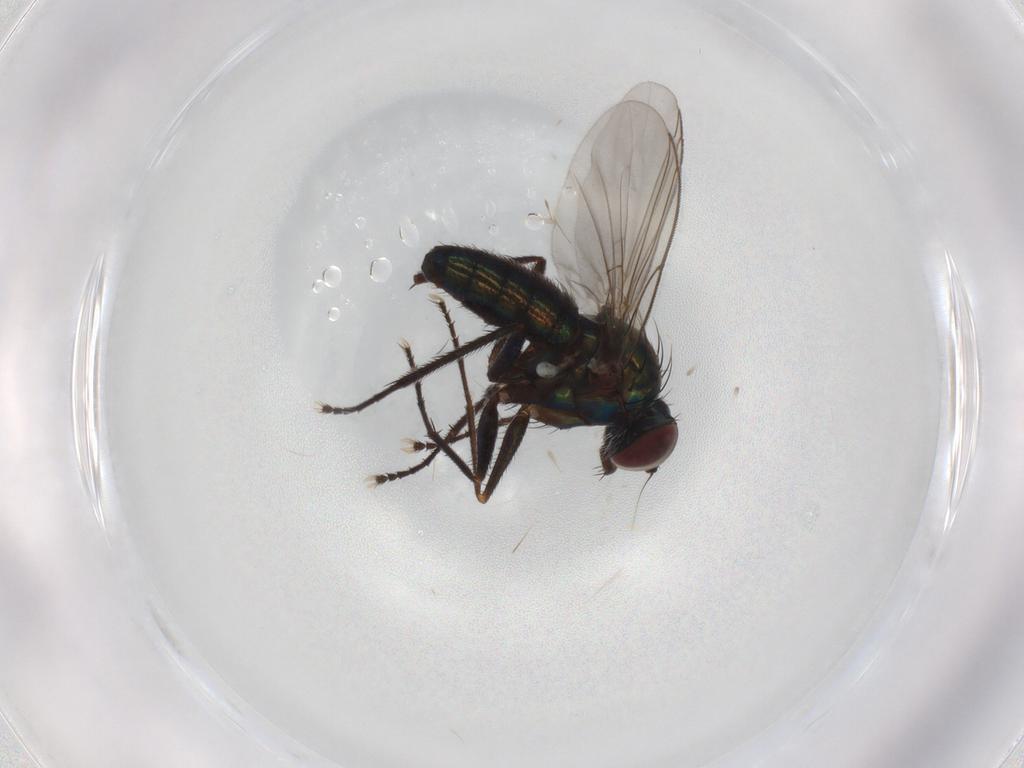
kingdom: Animalia
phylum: Arthropoda
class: Insecta
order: Diptera
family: Dolichopodidae
